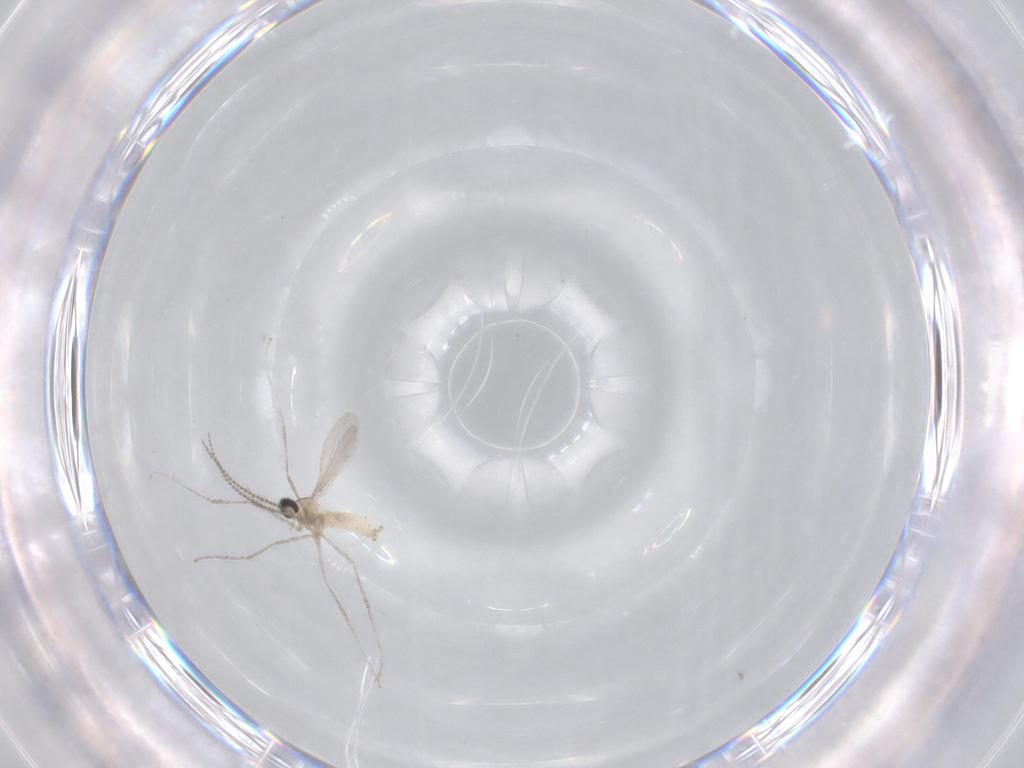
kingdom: Animalia
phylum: Arthropoda
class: Insecta
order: Diptera
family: Cecidomyiidae
